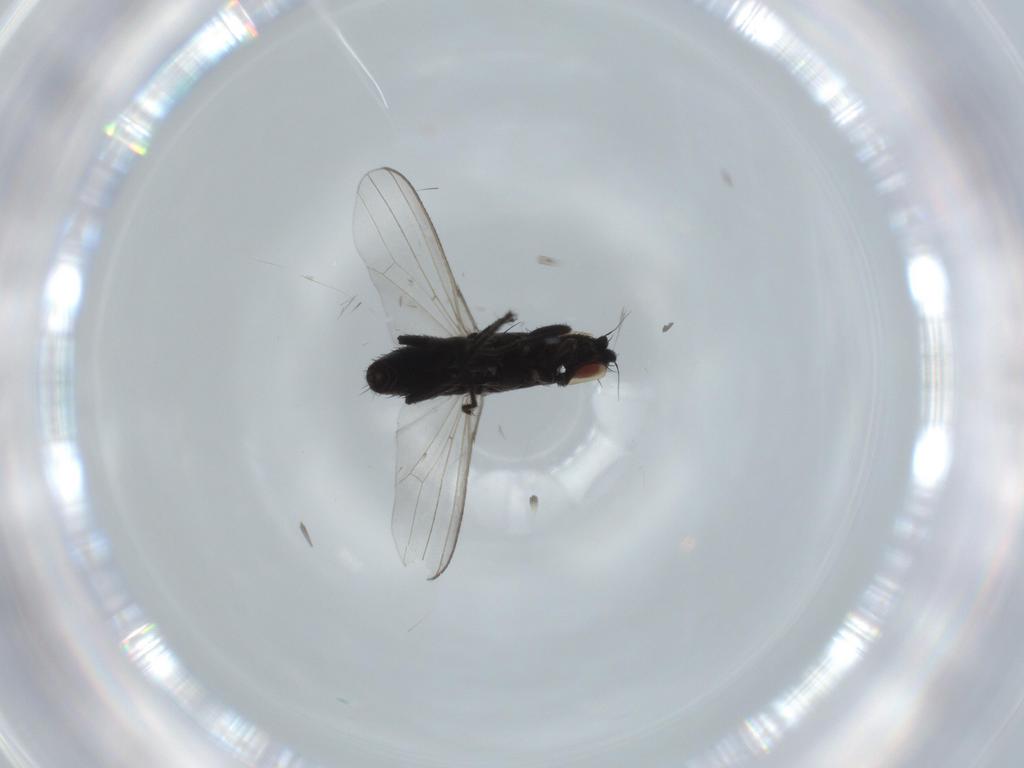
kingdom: Animalia
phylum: Arthropoda
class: Insecta
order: Diptera
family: Milichiidae
